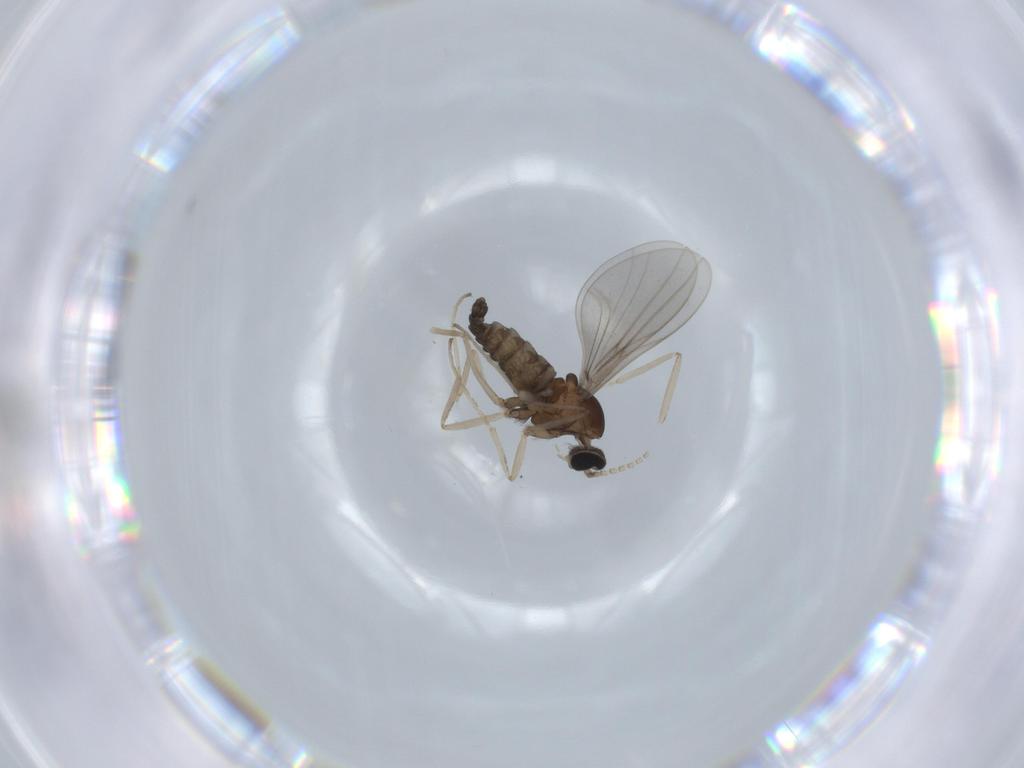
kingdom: Animalia
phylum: Arthropoda
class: Insecta
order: Diptera
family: Cecidomyiidae
